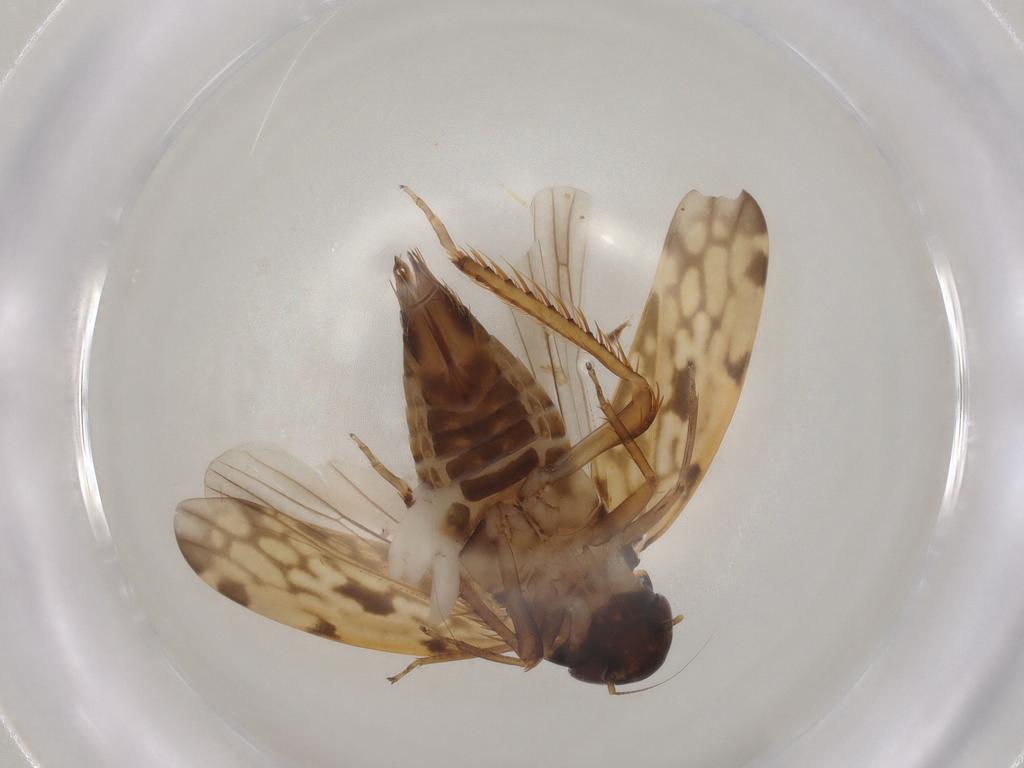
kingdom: Animalia
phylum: Arthropoda
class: Insecta
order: Hemiptera
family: Cicadellidae
